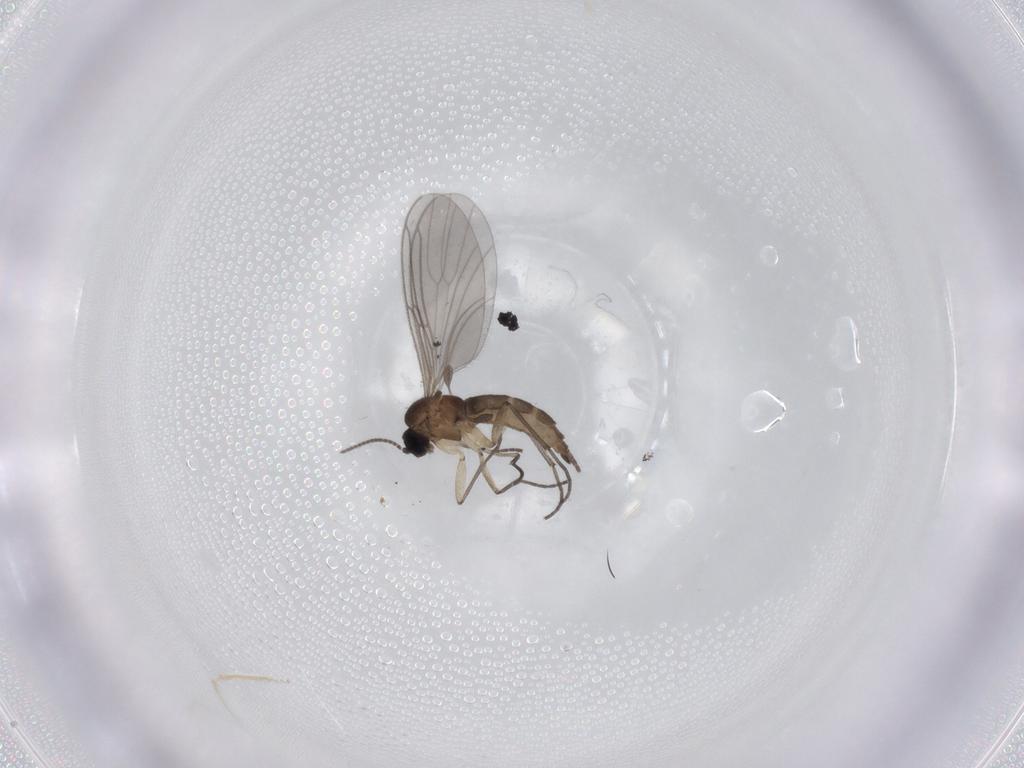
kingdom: Animalia
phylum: Arthropoda
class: Insecta
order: Diptera
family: Sciaridae
